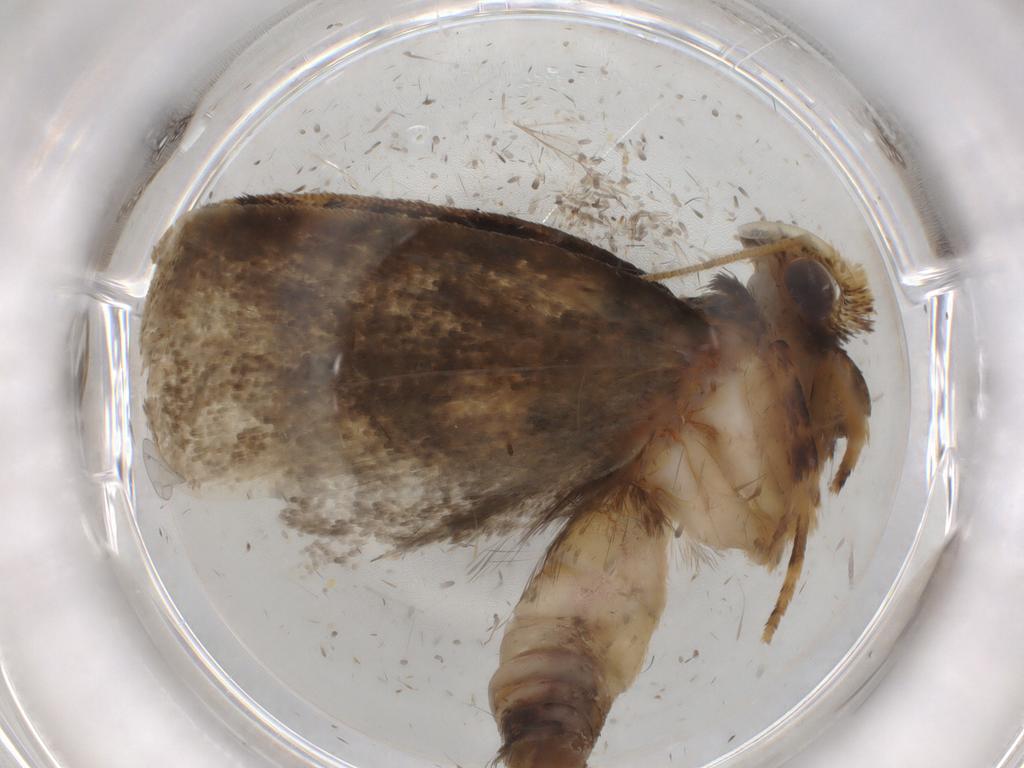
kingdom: Animalia
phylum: Arthropoda
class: Insecta
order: Lepidoptera
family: Tineidae
